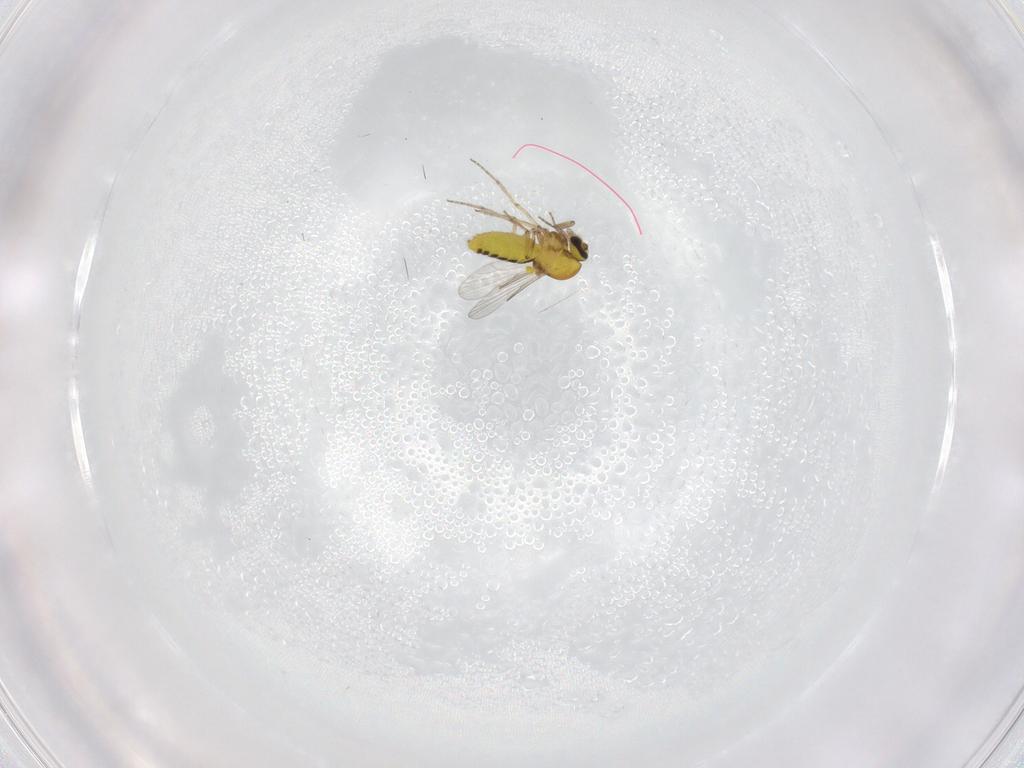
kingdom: Animalia
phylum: Arthropoda
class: Insecta
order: Diptera
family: Ceratopogonidae
